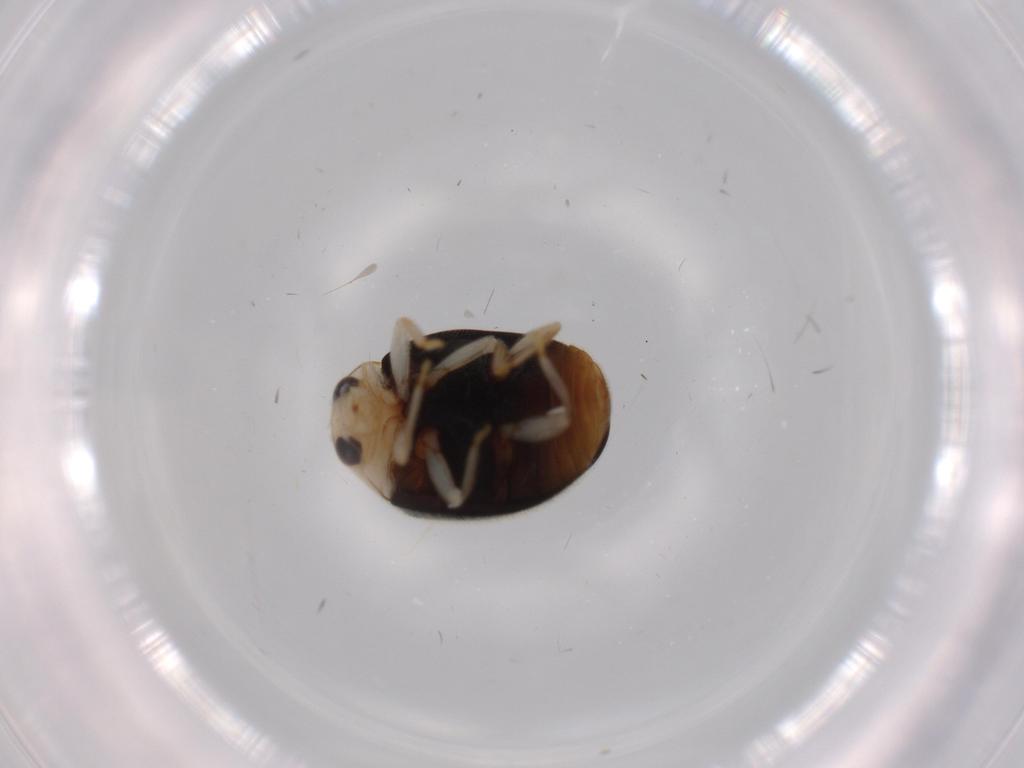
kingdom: Animalia
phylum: Arthropoda
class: Insecta
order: Coleoptera
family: Coccinellidae
